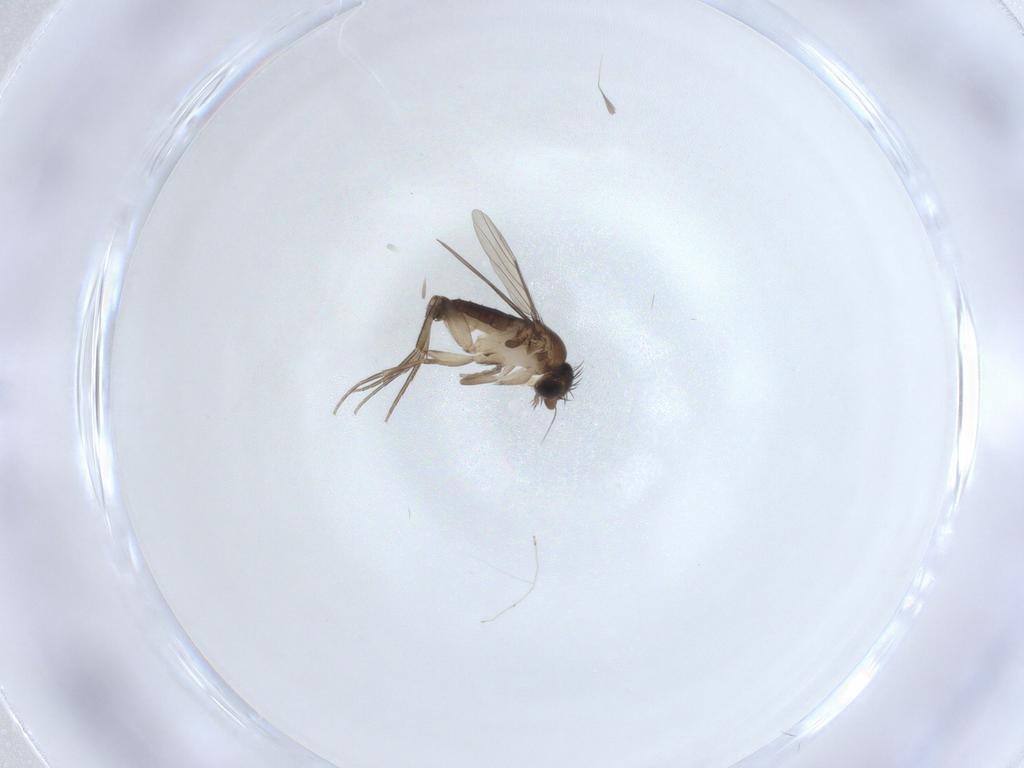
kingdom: Animalia
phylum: Arthropoda
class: Insecta
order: Diptera
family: Phoridae
